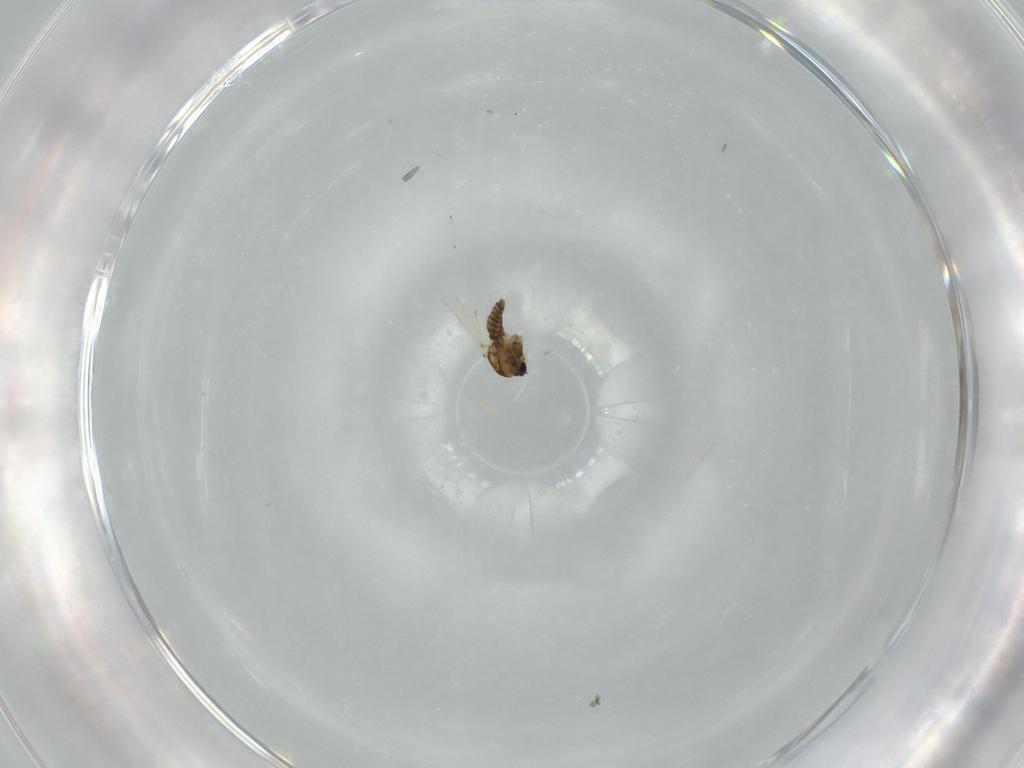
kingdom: Animalia
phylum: Arthropoda
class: Insecta
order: Diptera
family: Chironomidae
